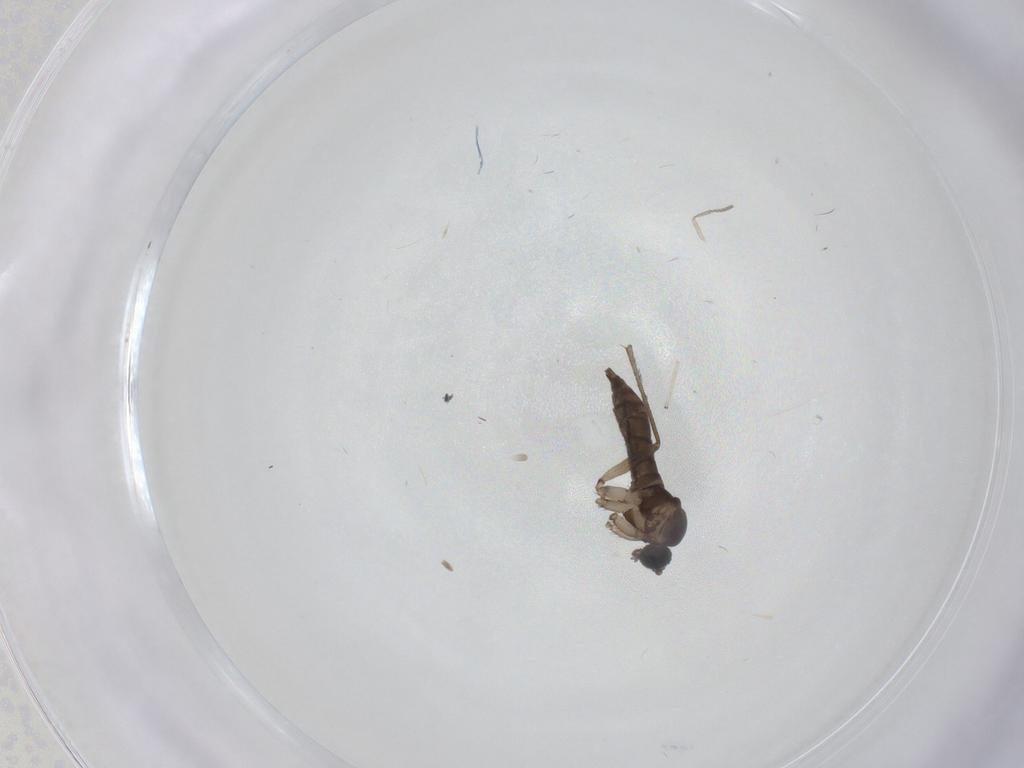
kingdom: Animalia
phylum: Arthropoda
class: Insecta
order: Diptera
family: Sciaridae
